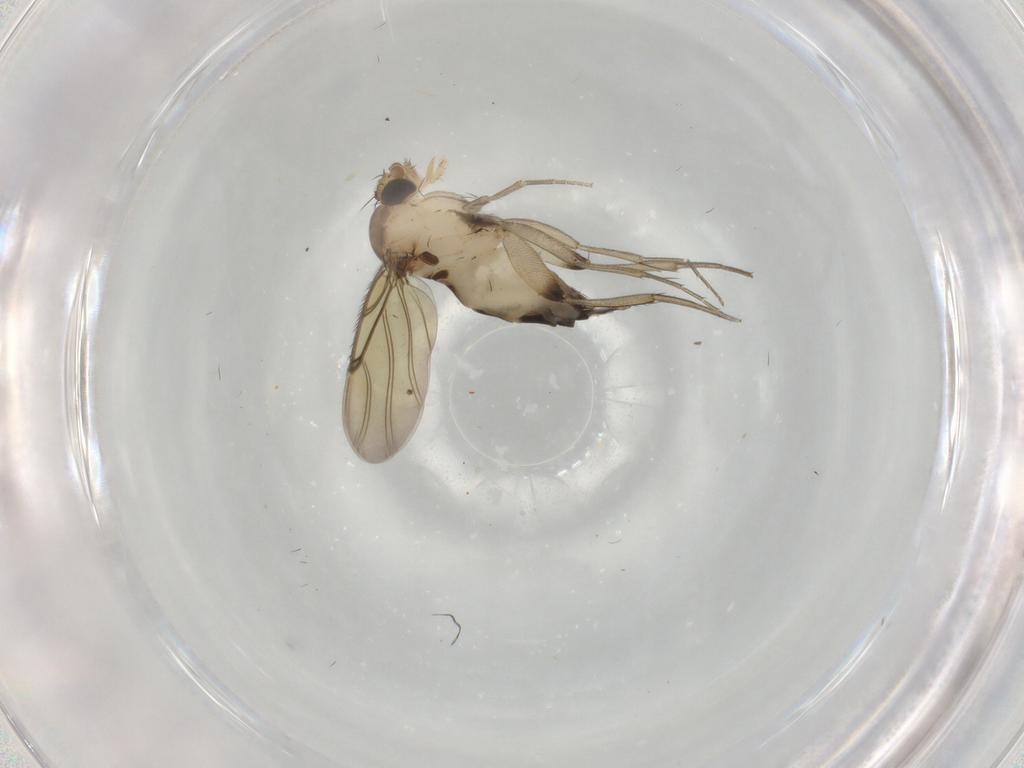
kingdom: Animalia
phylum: Arthropoda
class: Insecta
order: Diptera
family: Phoridae
